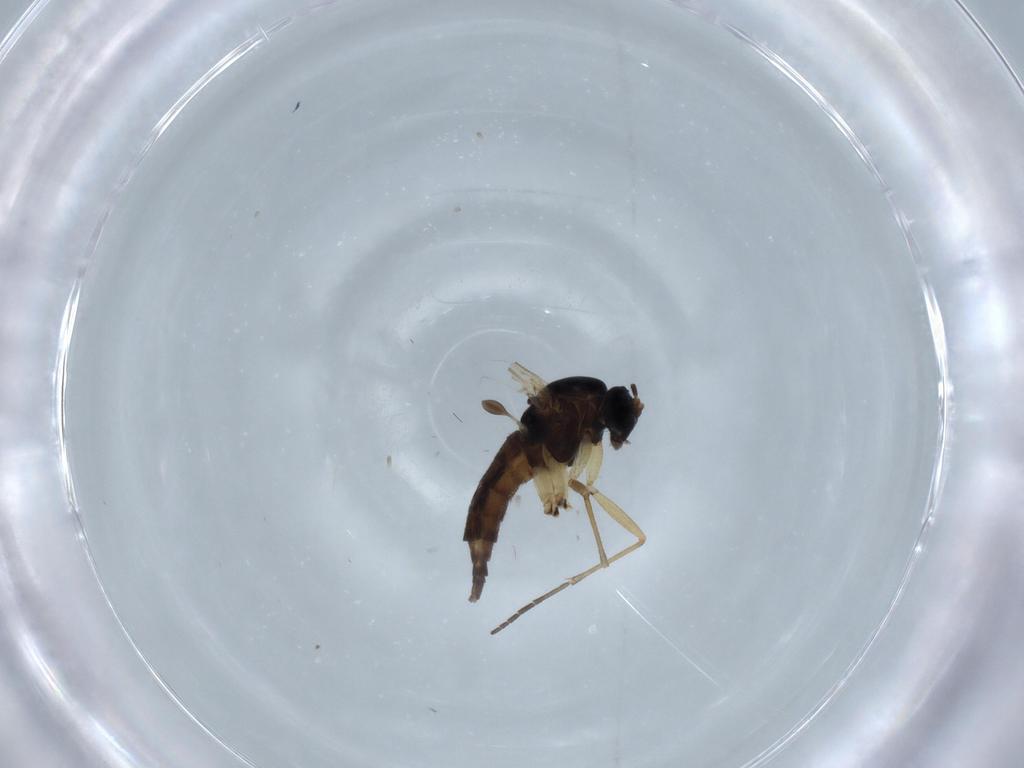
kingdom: Animalia
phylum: Arthropoda
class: Insecta
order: Diptera
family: Micropezidae
